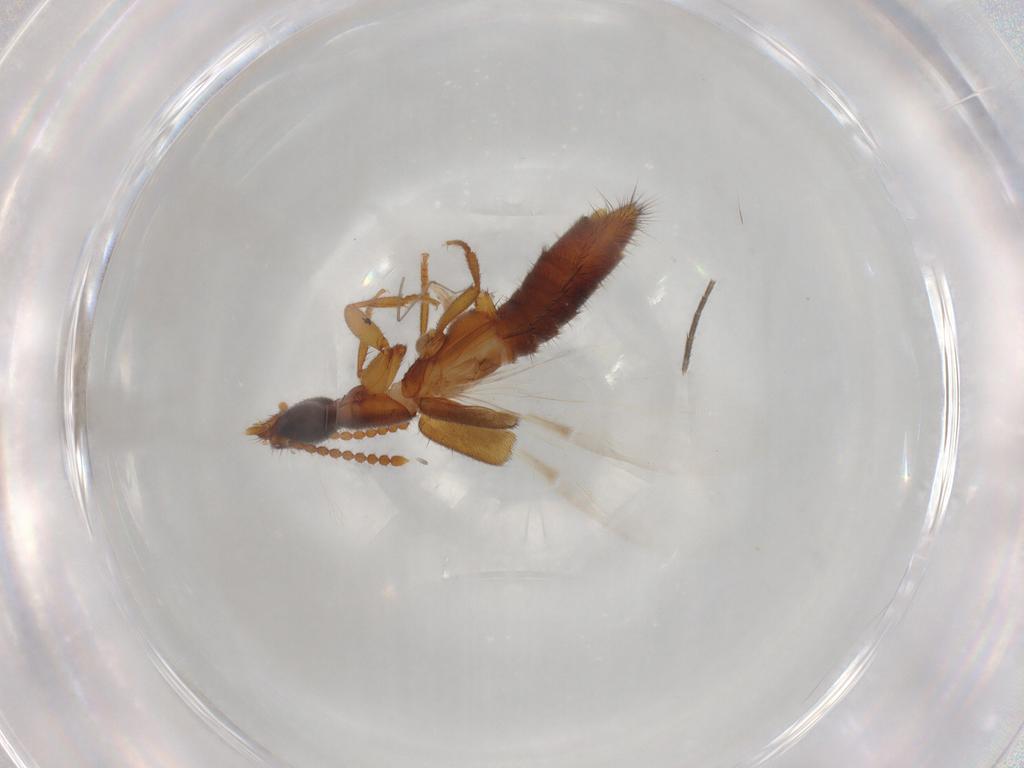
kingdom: Animalia
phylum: Arthropoda
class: Insecta
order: Coleoptera
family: Staphylinidae
